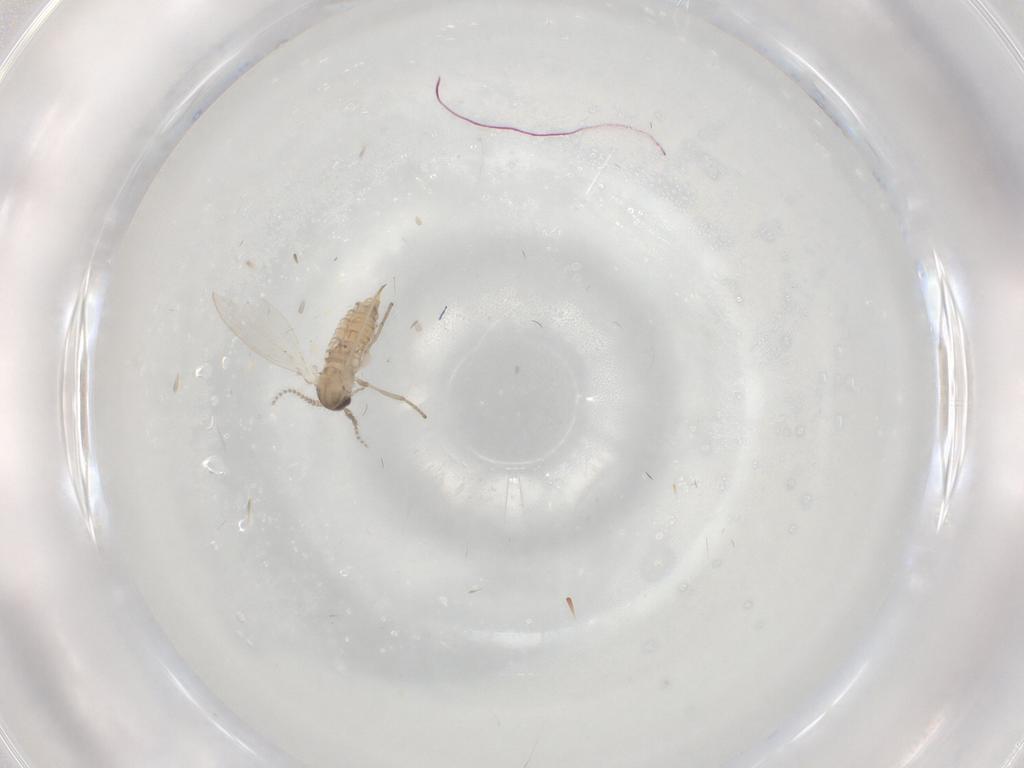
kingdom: Animalia
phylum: Arthropoda
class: Insecta
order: Diptera
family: Psychodidae
